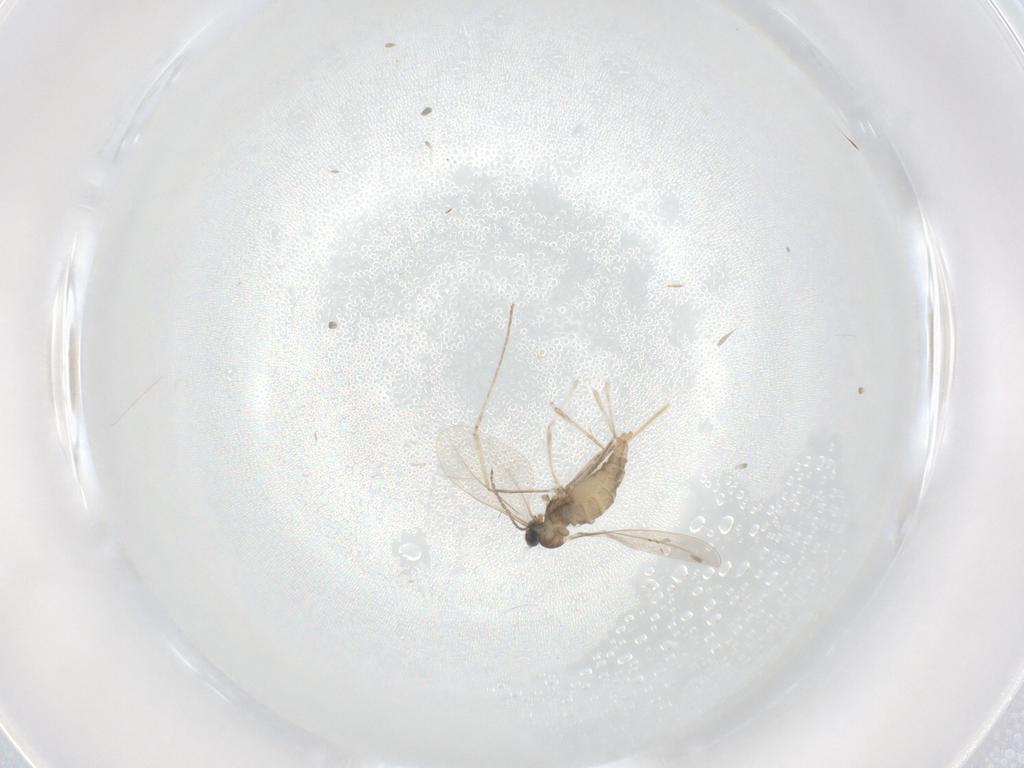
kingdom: Animalia
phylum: Arthropoda
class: Insecta
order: Diptera
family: Cecidomyiidae
